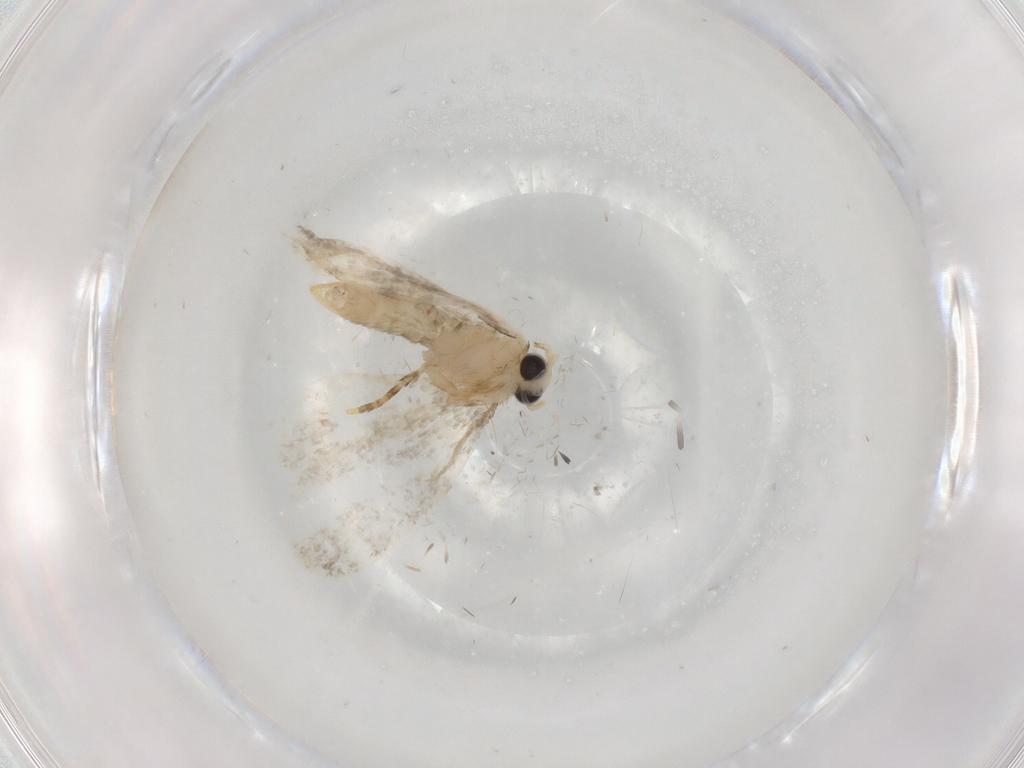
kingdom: Animalia
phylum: Arthropoda
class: Insecta
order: Lepidoptera
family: Psychidae
